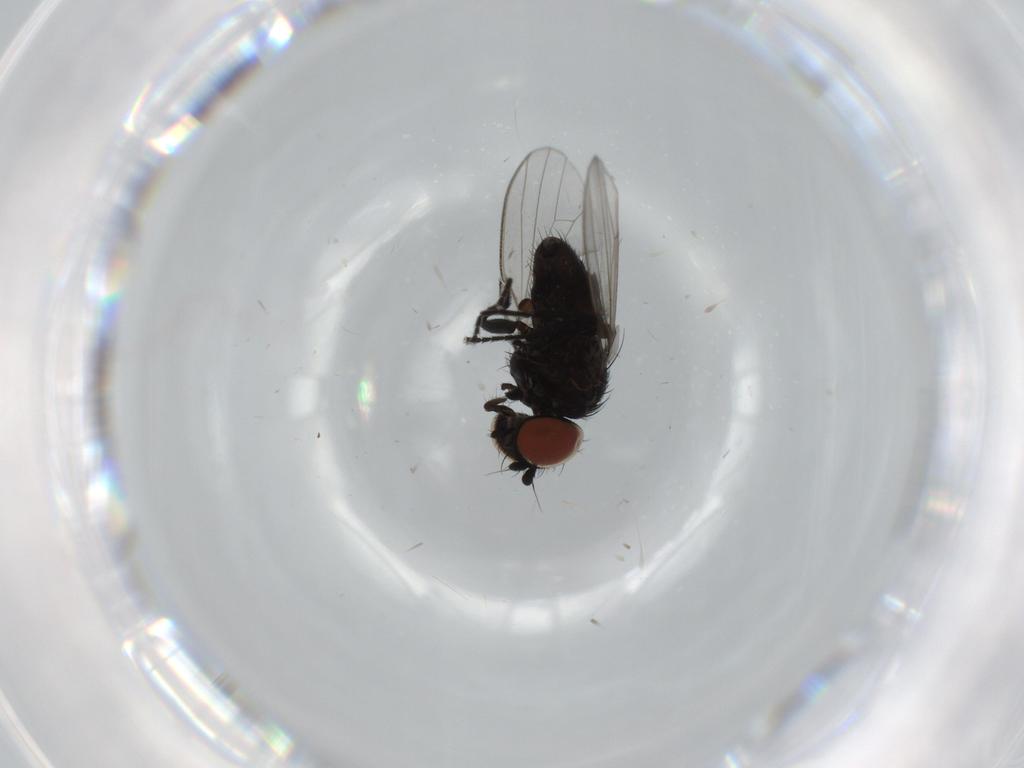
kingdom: Animalia
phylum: Arthropoda
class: Insecta
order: Diptera
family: Milichiidae
